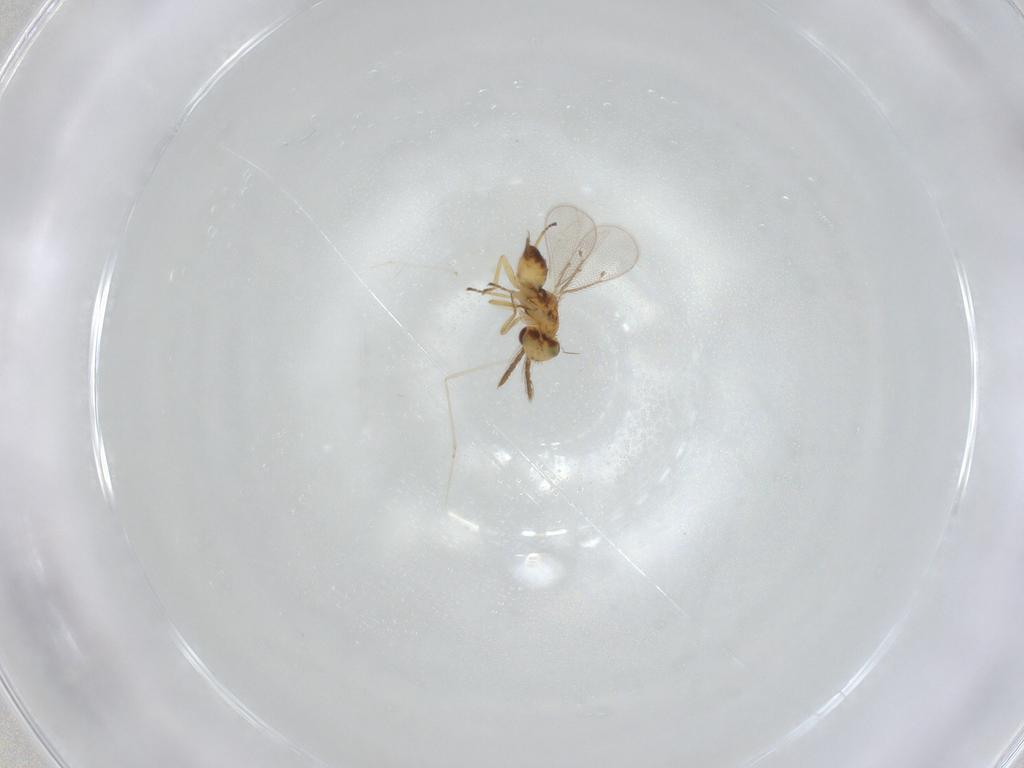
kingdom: Animalia
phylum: Arthropoda
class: Insecta
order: Hymenoptera
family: Eulophidae
